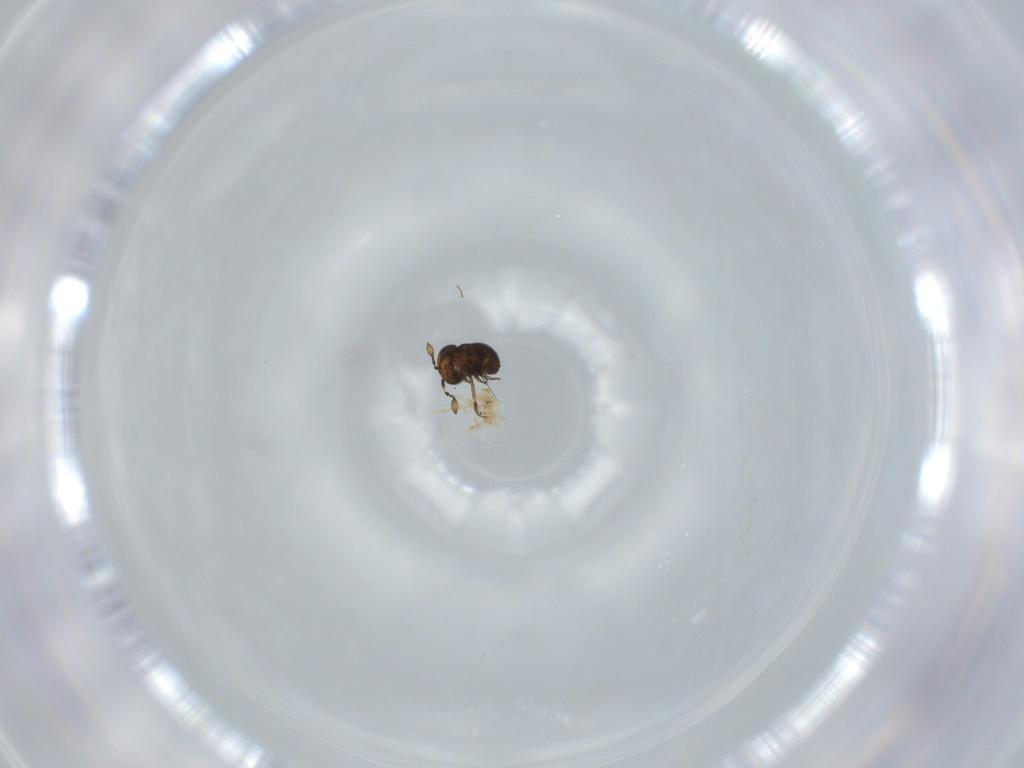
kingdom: Animalia
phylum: Arthropoda
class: Insecta
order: Hymenoptera
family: Scelionidae
